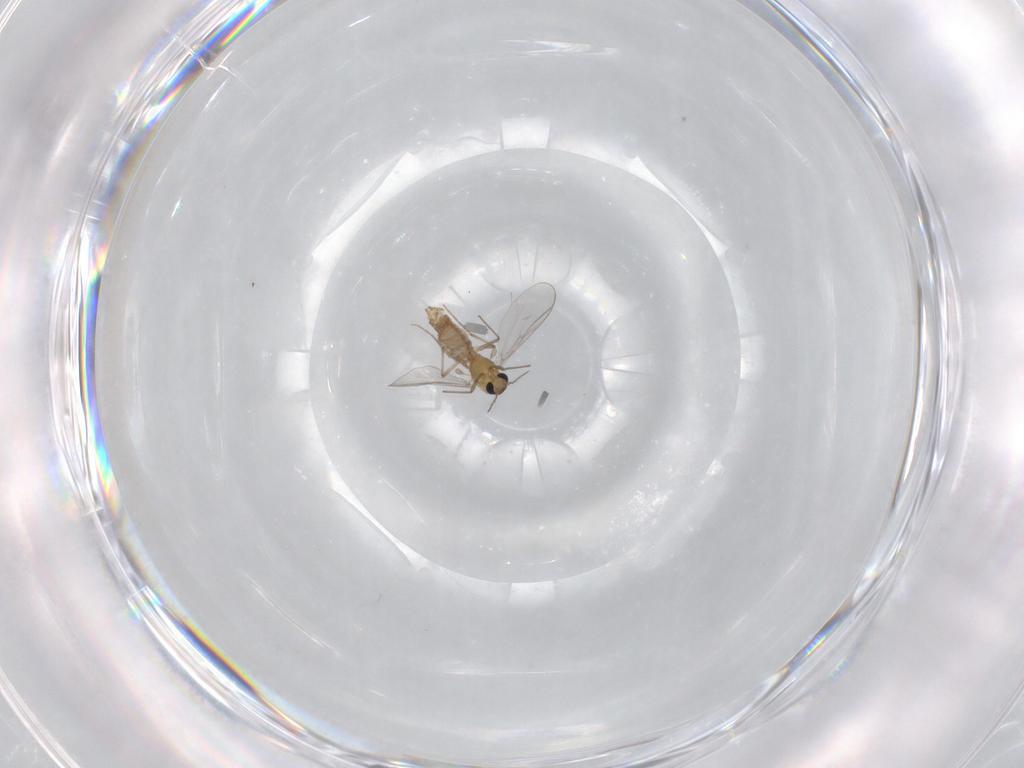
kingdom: Animalia
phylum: Arthropoda
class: Insecta
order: Diptera
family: Chironomidae
